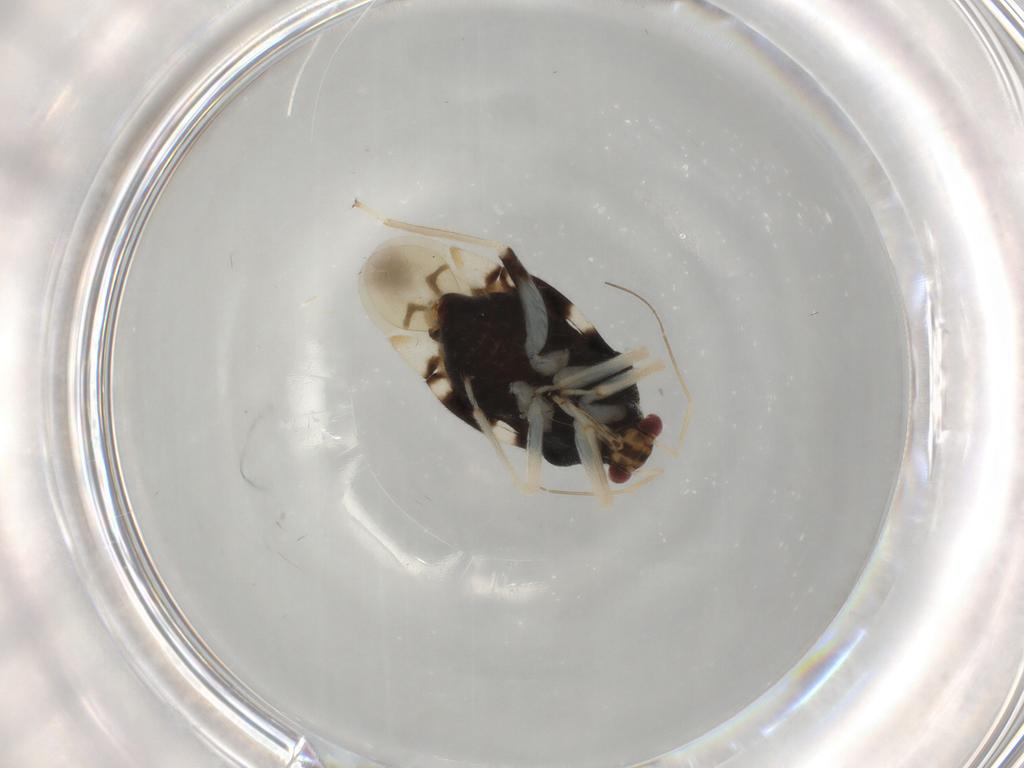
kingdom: Animalia
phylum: Arthropoda
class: Insecta
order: Hemiptera
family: Miridae
